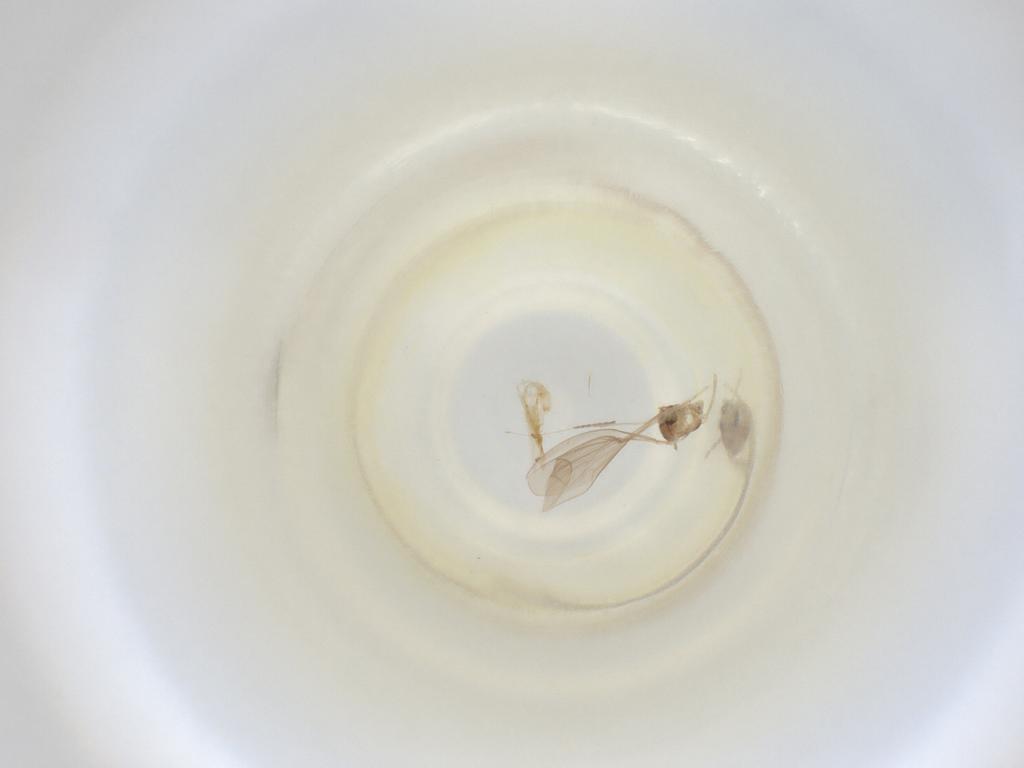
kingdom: Animalia
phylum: Arthropoda
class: Insecta
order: Diptera
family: Cecidomyiidae
